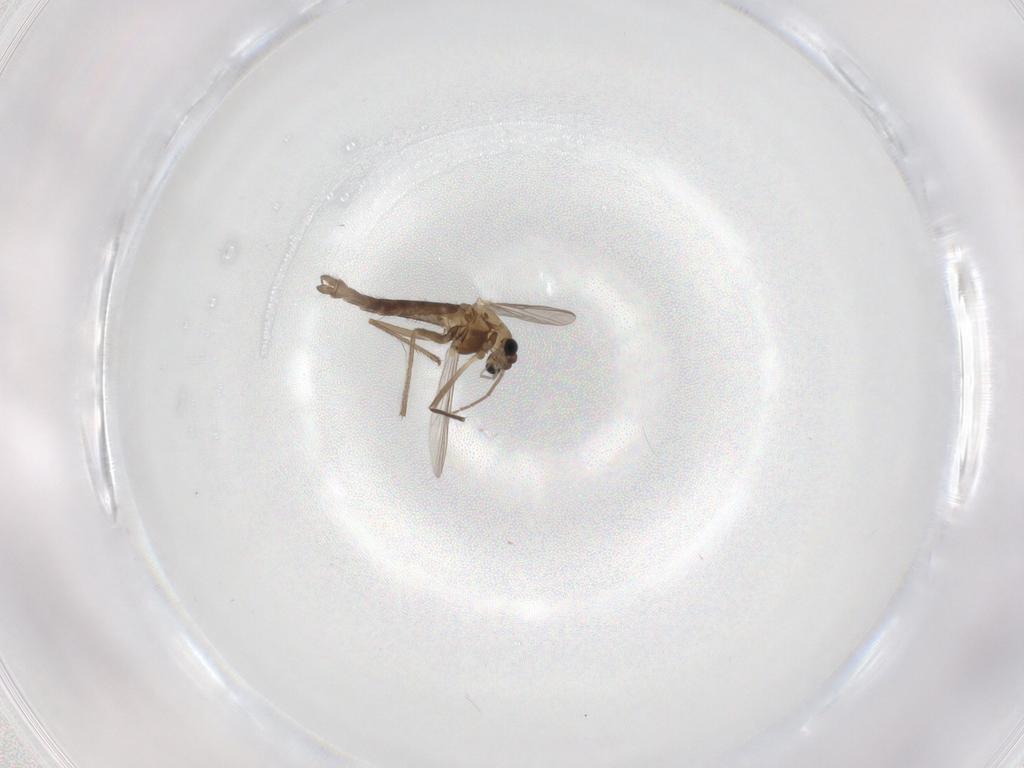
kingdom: Animalia
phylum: Arthropoda
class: Insecta
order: Diptera
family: Chironomidae
